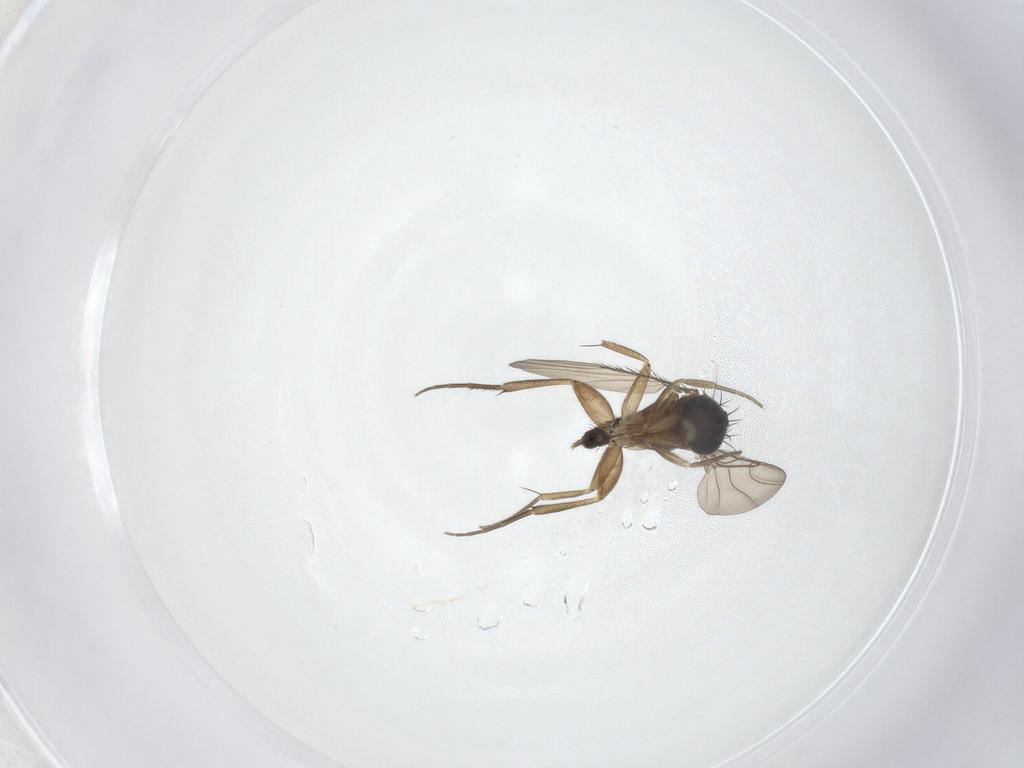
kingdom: Animalia
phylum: Arthropoda
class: Insecta
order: Diptera
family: Phoridae
